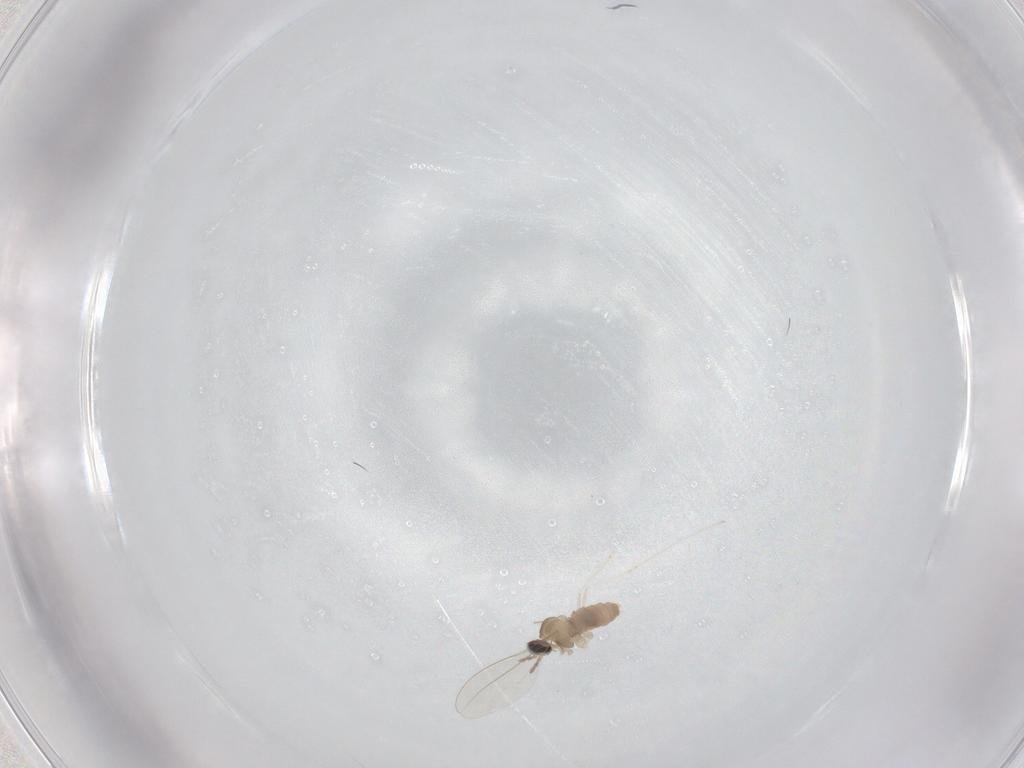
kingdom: Animalia
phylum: Arthropoda
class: Insecta
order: Diptera
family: Cecidomyiidae
